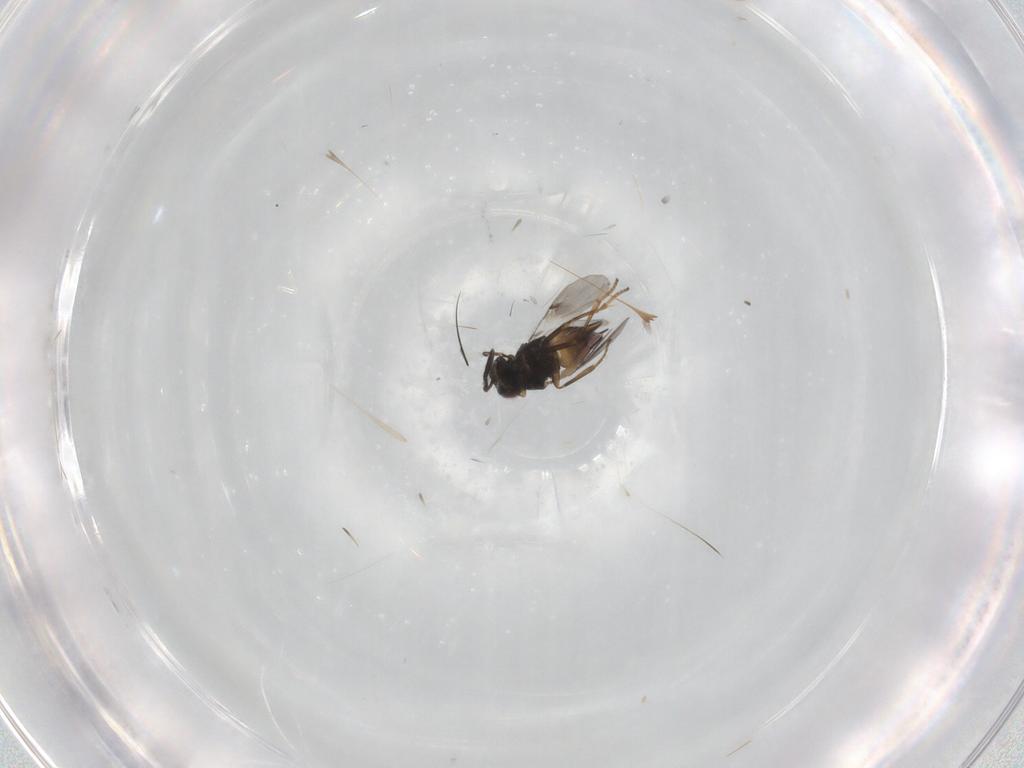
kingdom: Animalia
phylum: Arthropoda
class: Insecta
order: Hymenoptera
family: Encyrtidae
